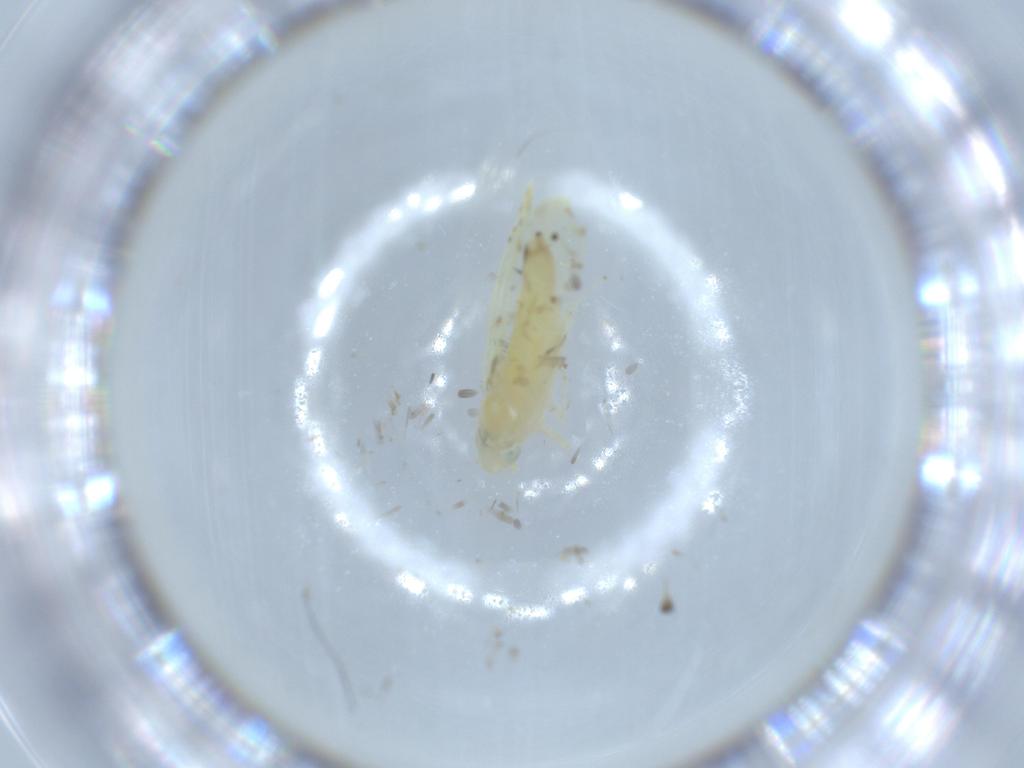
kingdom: Animalia
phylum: Arthropoda
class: Insecta
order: Hemiptera
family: Cicadellidae
